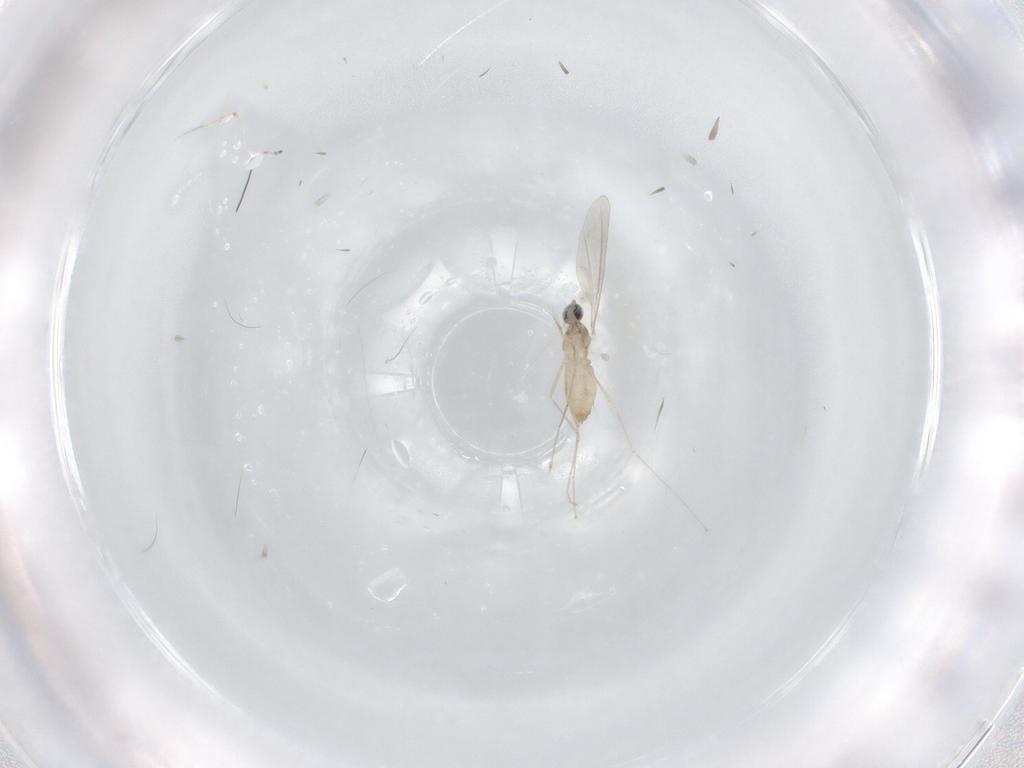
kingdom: Animalia
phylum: Arthropoda
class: Insecta
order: Diptera
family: Cecidomyiidae
